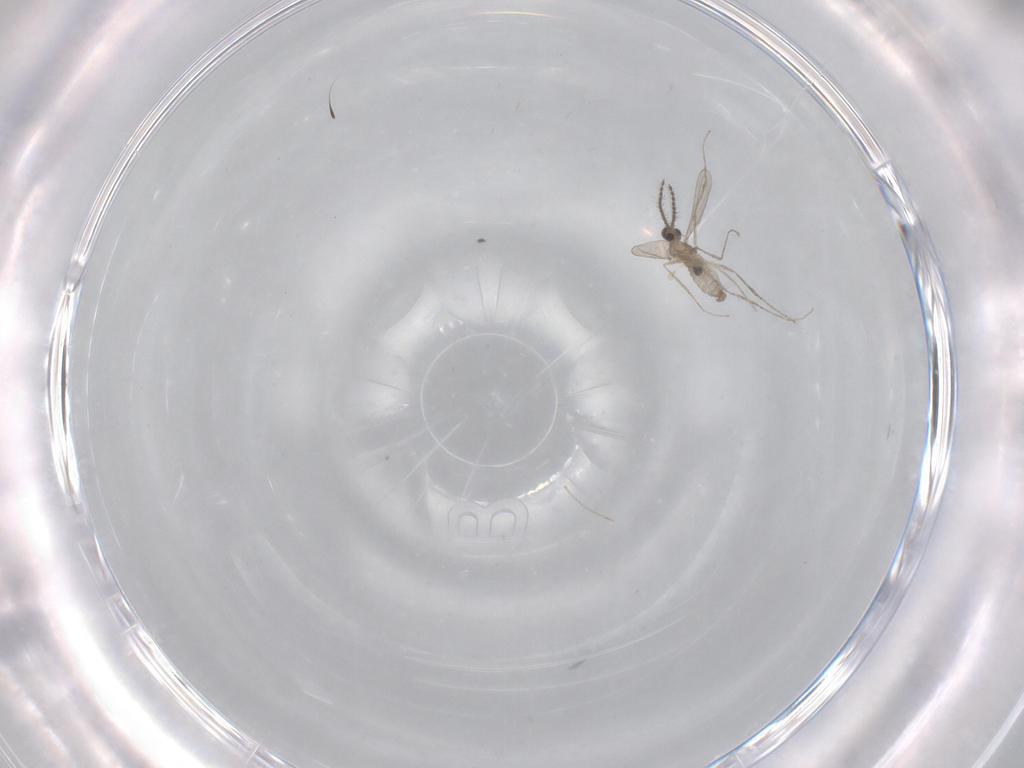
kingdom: Animalia
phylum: Arthropoda
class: Insecta
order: Diptera
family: Chironomidae
